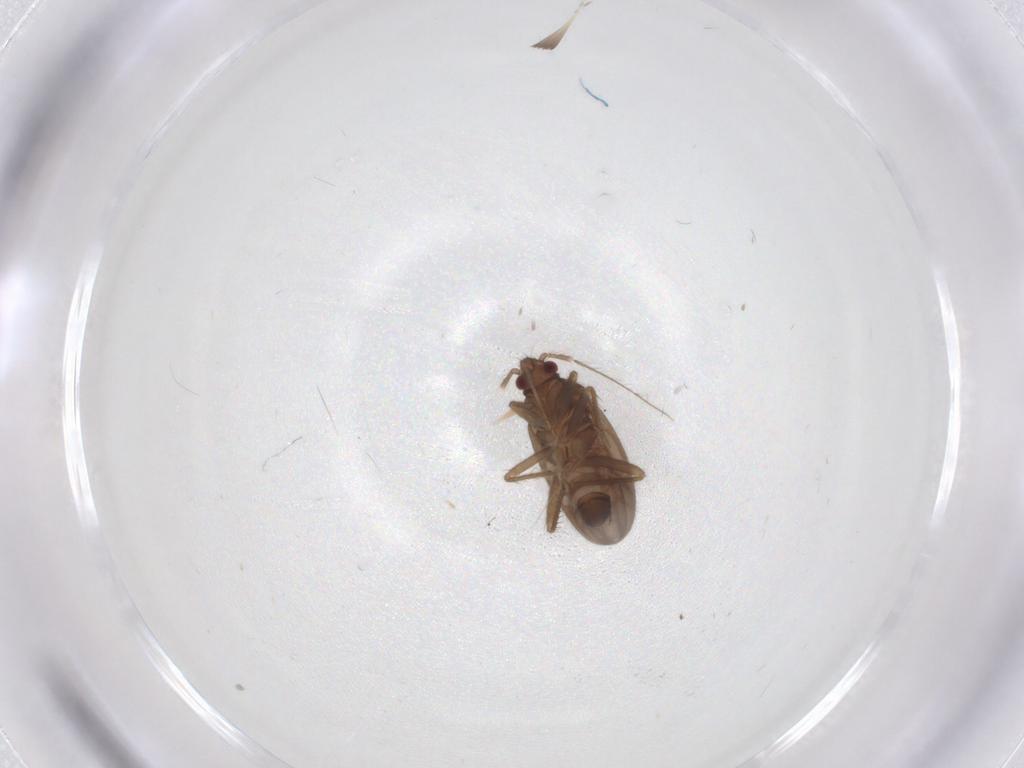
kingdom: Animalia
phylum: Arthropoda
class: Insecta
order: Hemiptera
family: Ceratocombidae
